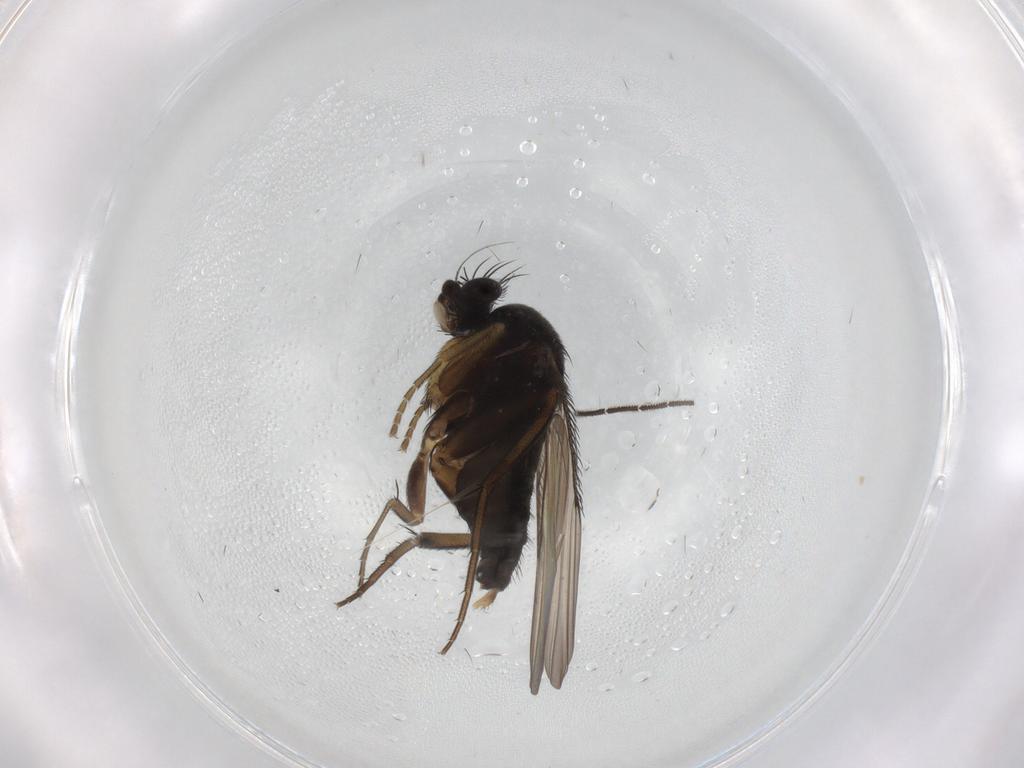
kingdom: Animalia
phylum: Arthropoda
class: Insecta
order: Diptera
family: Phoridae
